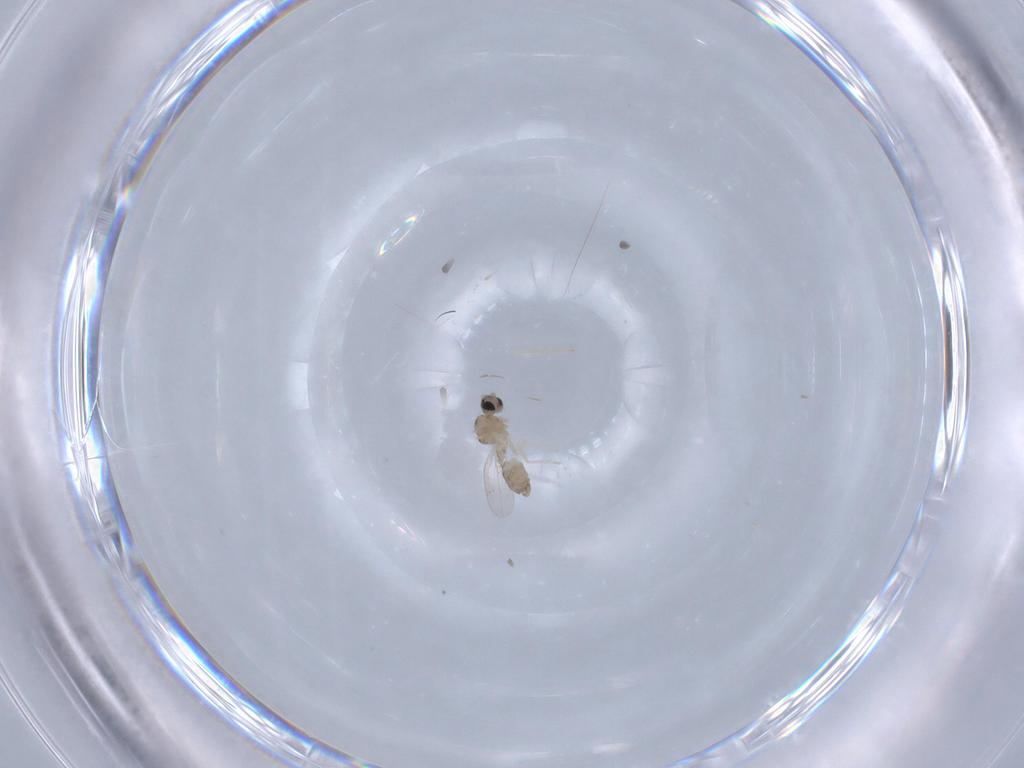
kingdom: Animalia
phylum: Arthropoda
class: Insecta
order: Diptera
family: Cecidomyiidae
